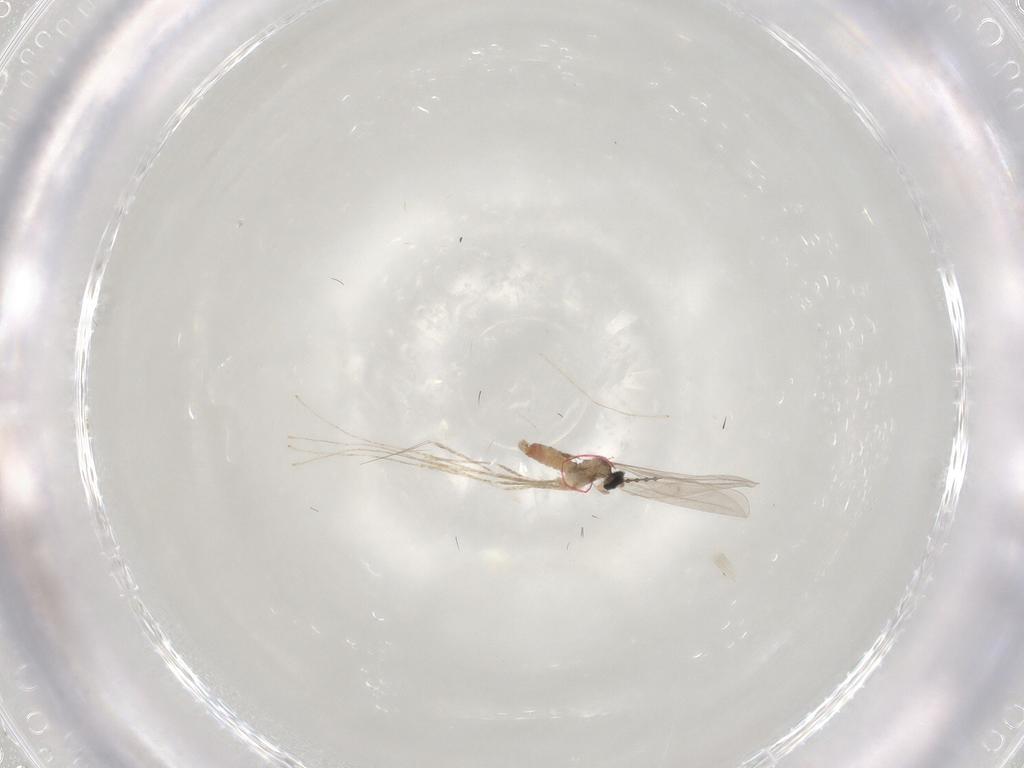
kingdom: Animalia
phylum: Arthropoda
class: Insecta
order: Diptera
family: Cecidomyiidae
